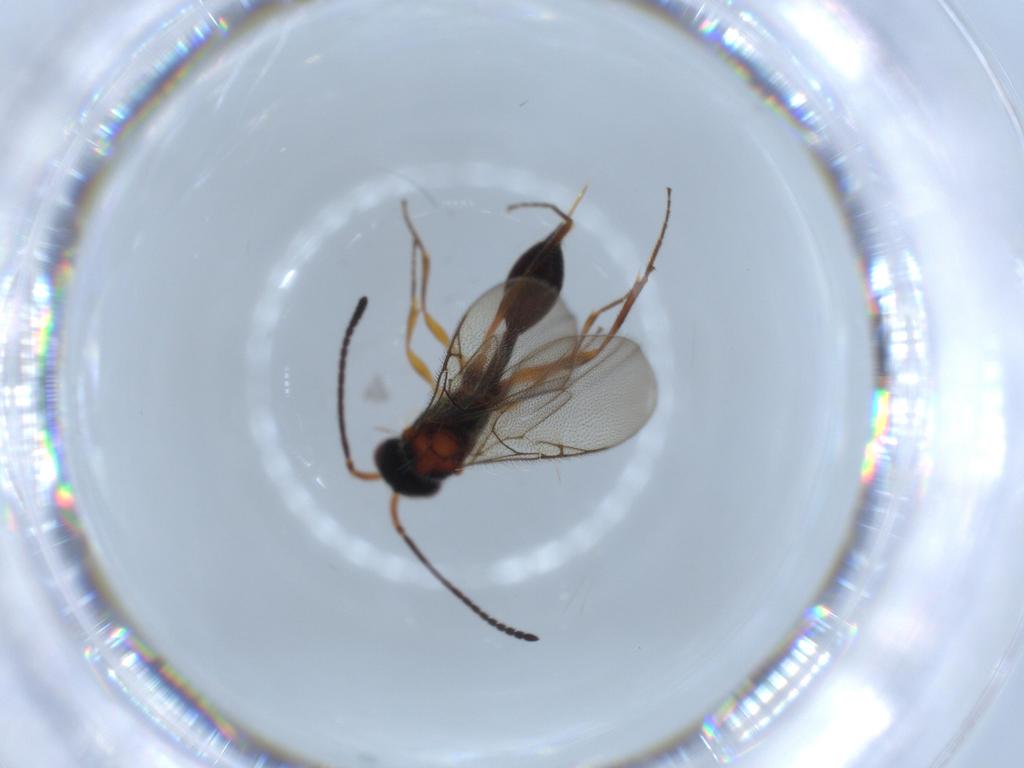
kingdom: Animalia
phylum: Arthropoda
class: Insecta
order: Hymenoptera
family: Diapriidae
